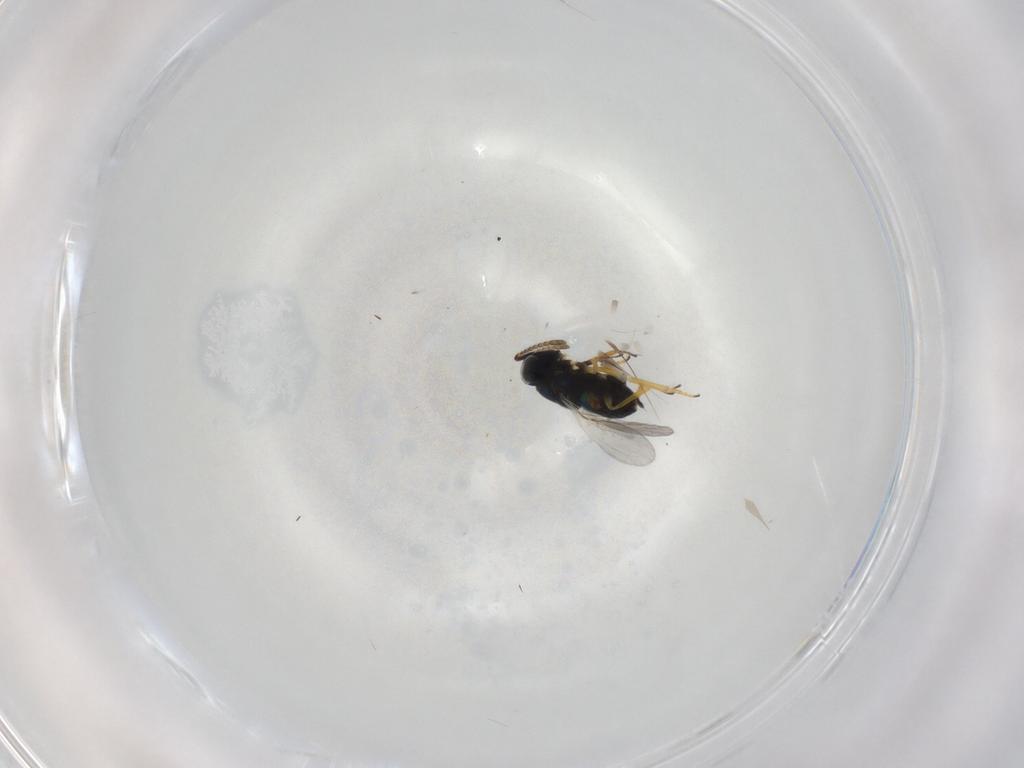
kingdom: Animalia
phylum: Arthropoda
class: Insecta
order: Hymenoptera
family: Encyrtidae
